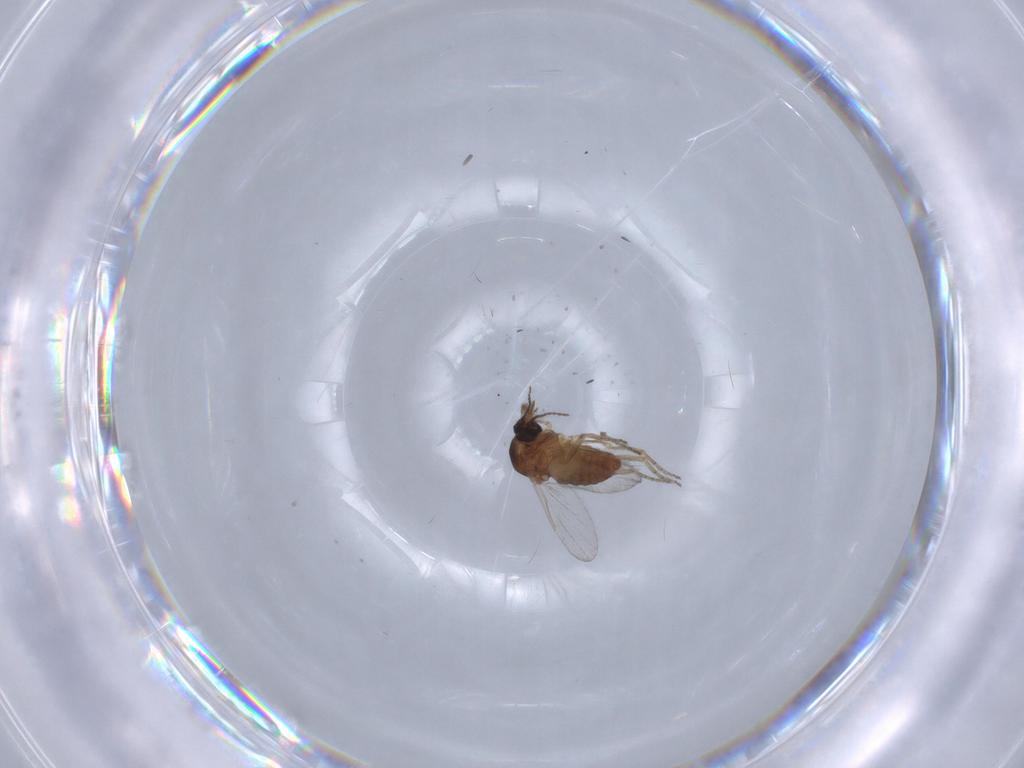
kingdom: Animalia
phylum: Arthropoda
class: Insecta
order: Diptera
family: Ceratopogonidae
